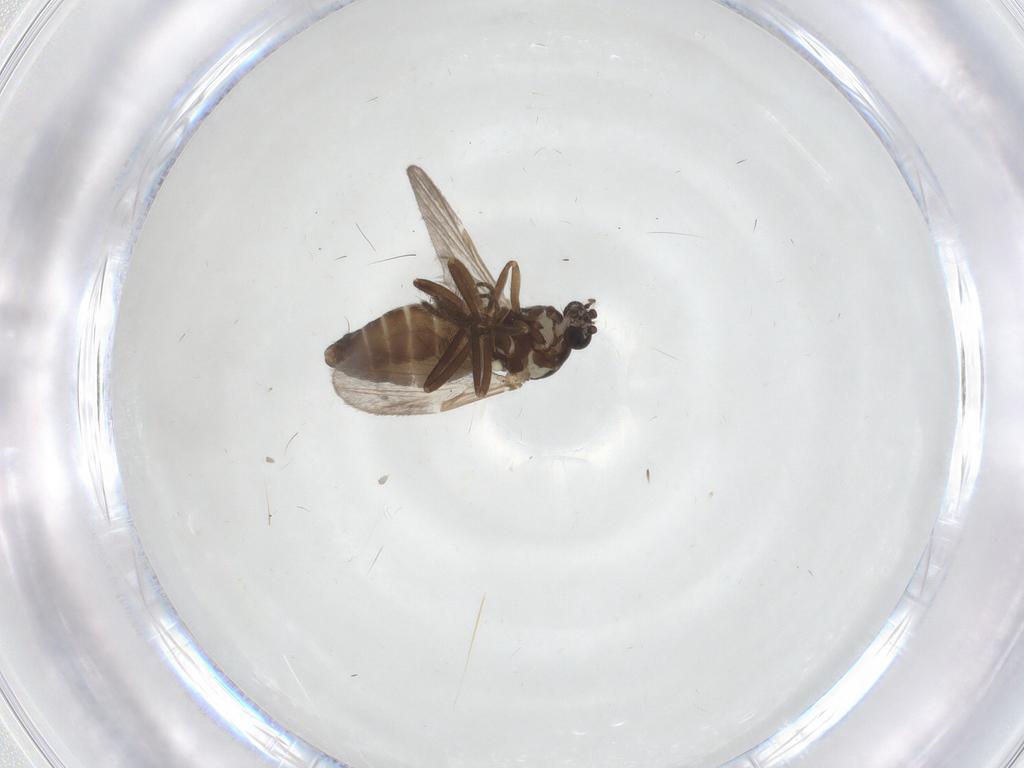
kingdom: Animalia
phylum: Arthropoda
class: Insecta
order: Diptera
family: Ceratopogonidae
